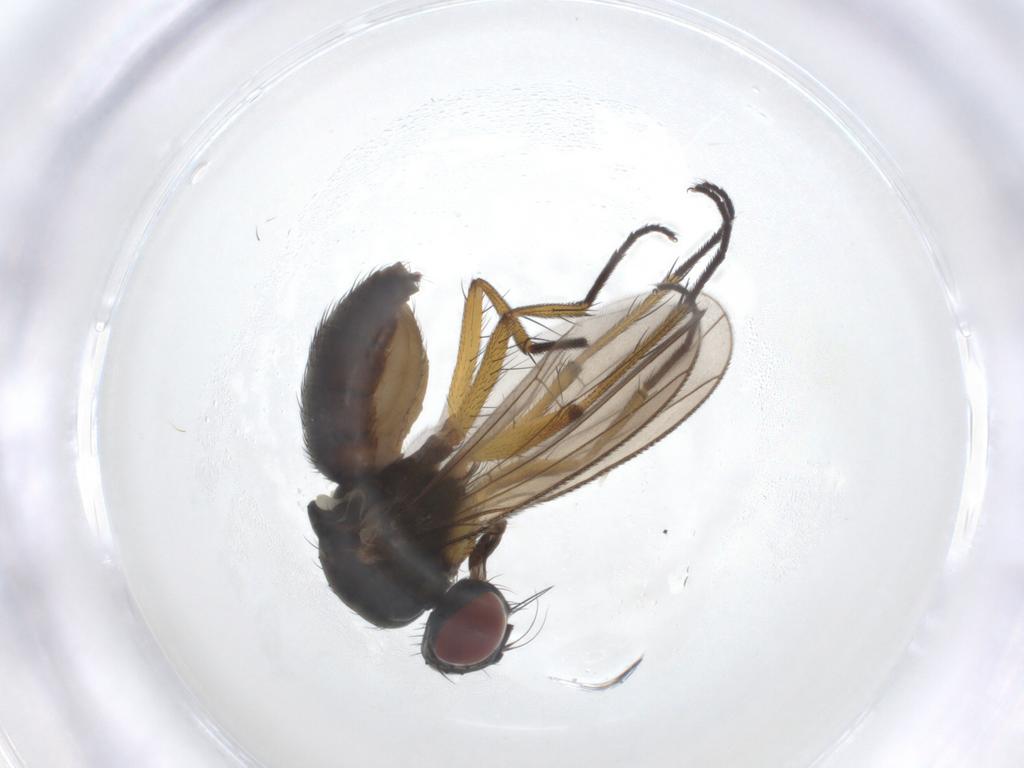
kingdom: Animalia
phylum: Arthropoda
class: Insecta
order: Diptera
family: Muscidae
